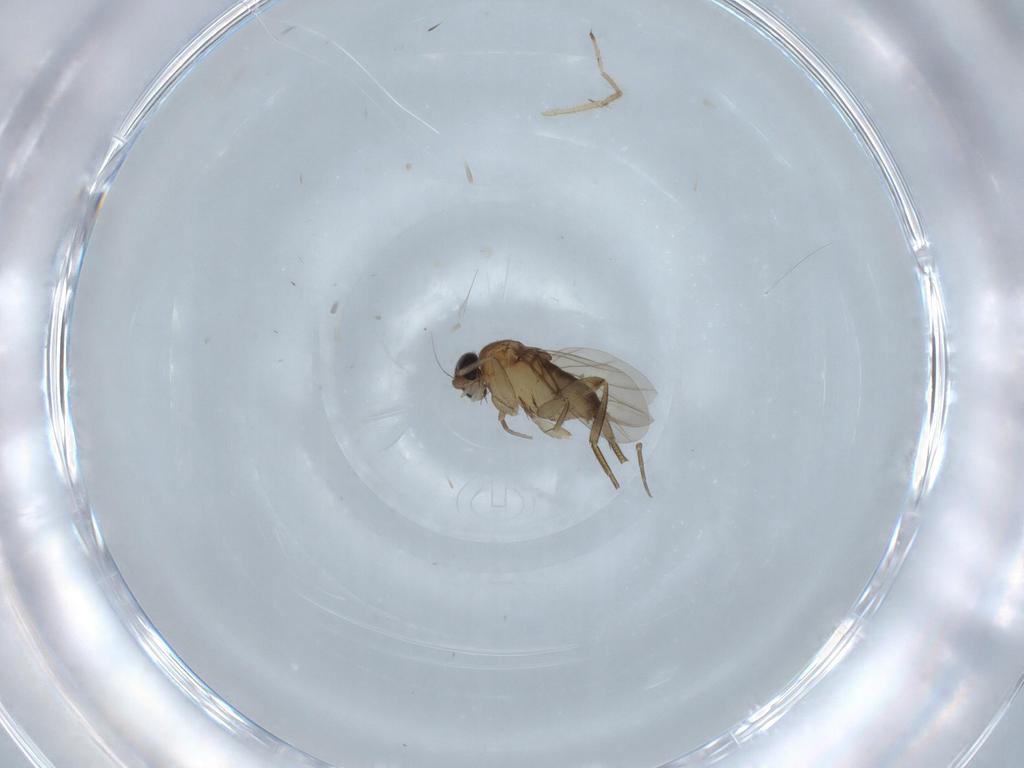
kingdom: Animalia
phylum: Arthropoda
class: Insecta
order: Diptera
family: Phoridae
